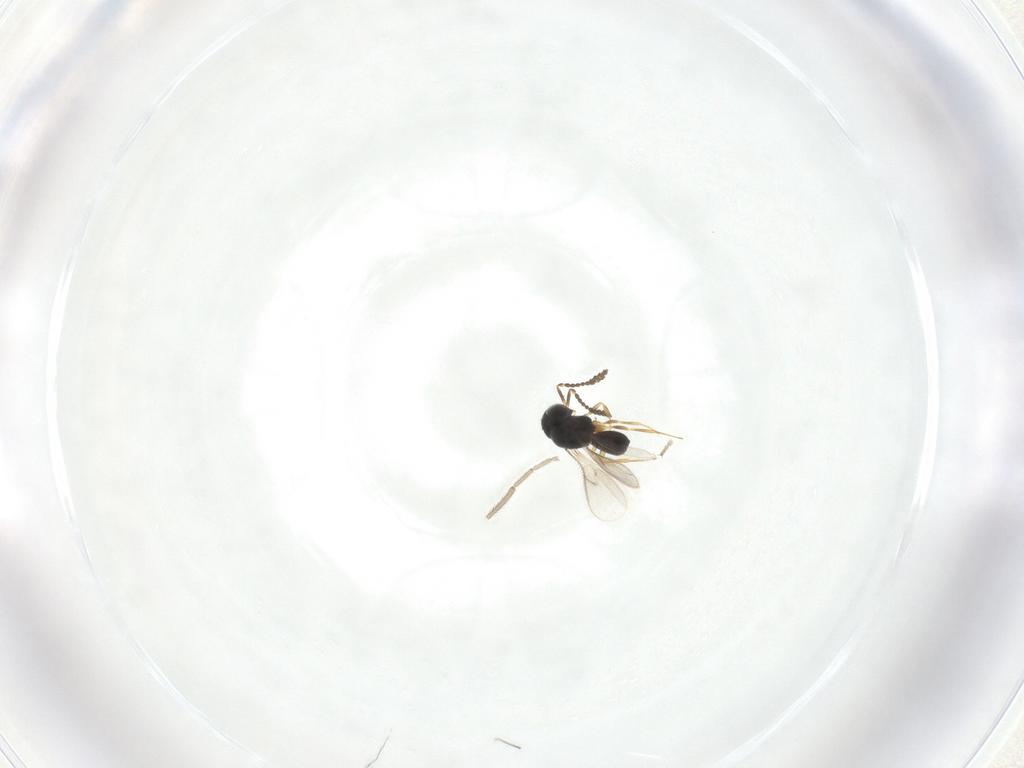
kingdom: Animalia
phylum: Arthropoda
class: Insecta
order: Hymenoptera
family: Scelionidae
